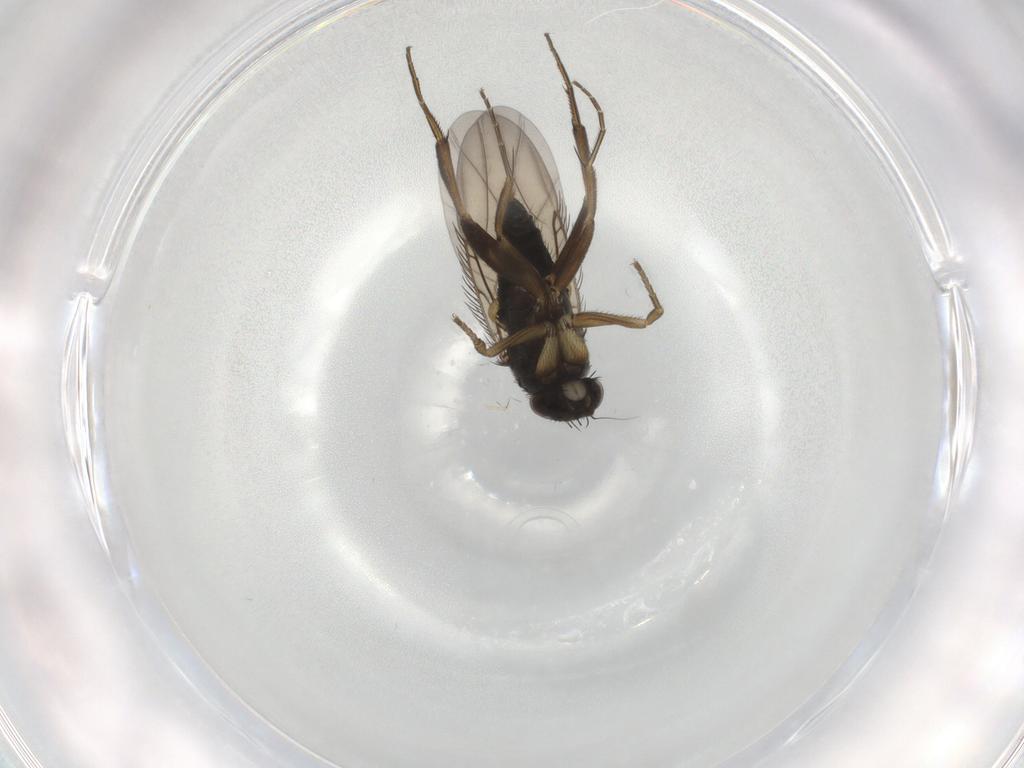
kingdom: Animalia
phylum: Arthropoda
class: Insecta
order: Diptera
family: Phoridae
